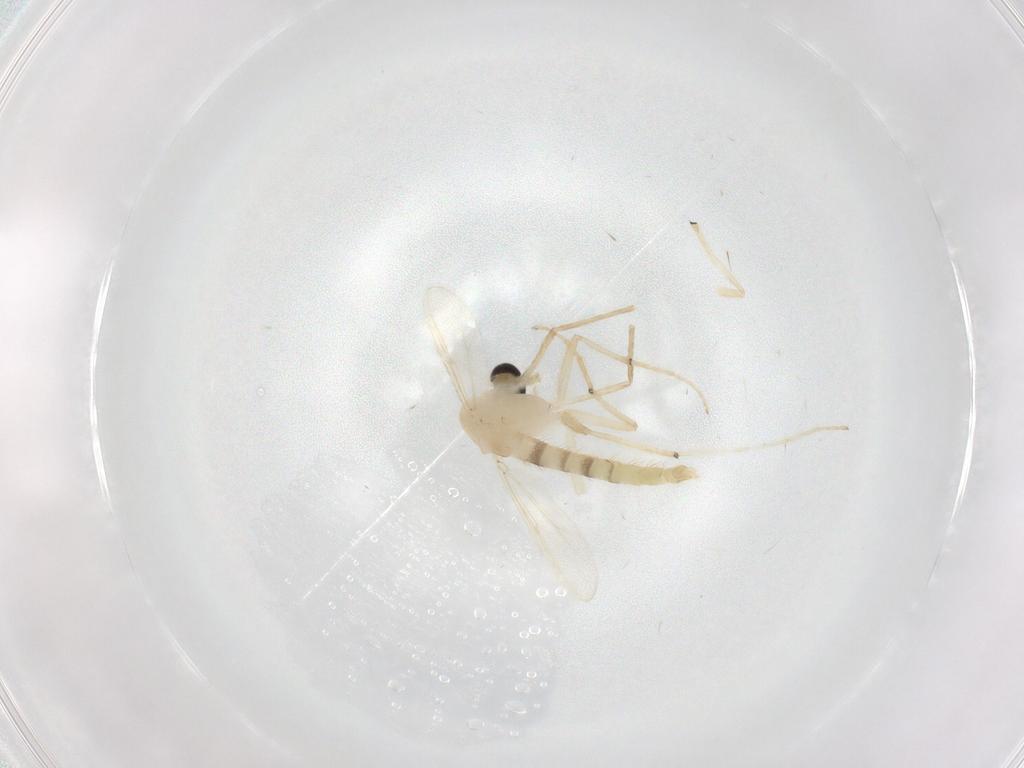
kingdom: Animalia
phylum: Arthropoda
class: Insecta
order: Diptera
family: Chironomidae
